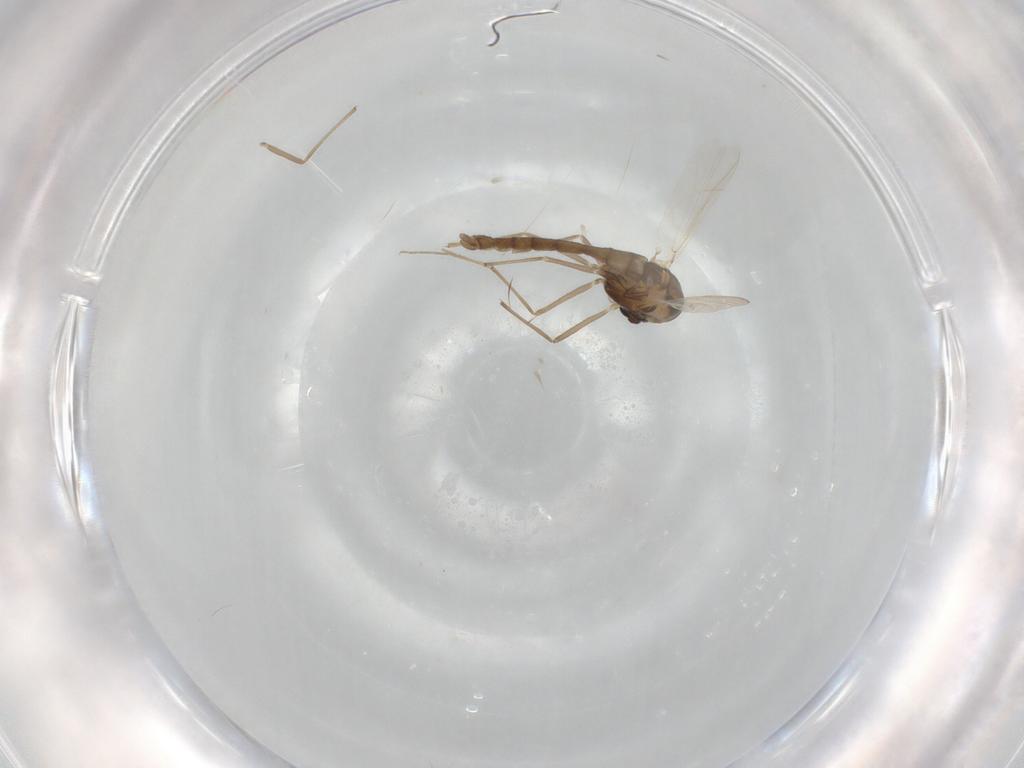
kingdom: Animalia
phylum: Arthropoda
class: Insecta
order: Diptera
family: Chironomidae
